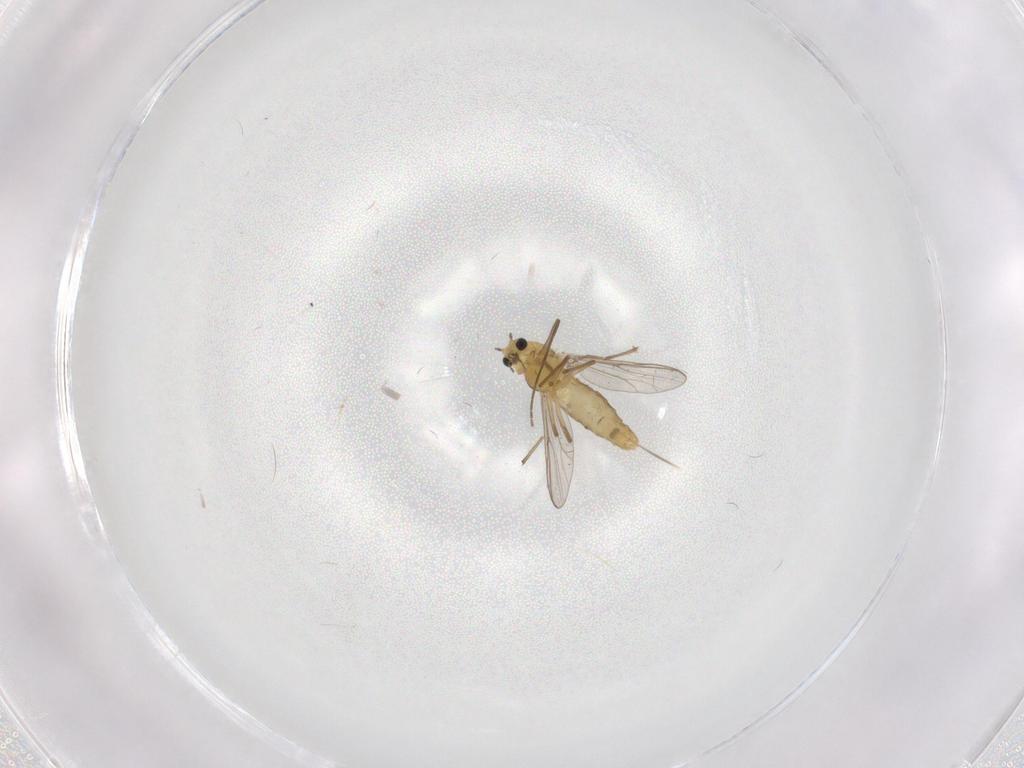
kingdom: Animalia
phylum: Arthropoda
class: Insecta
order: Diptera
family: Chironomidae
